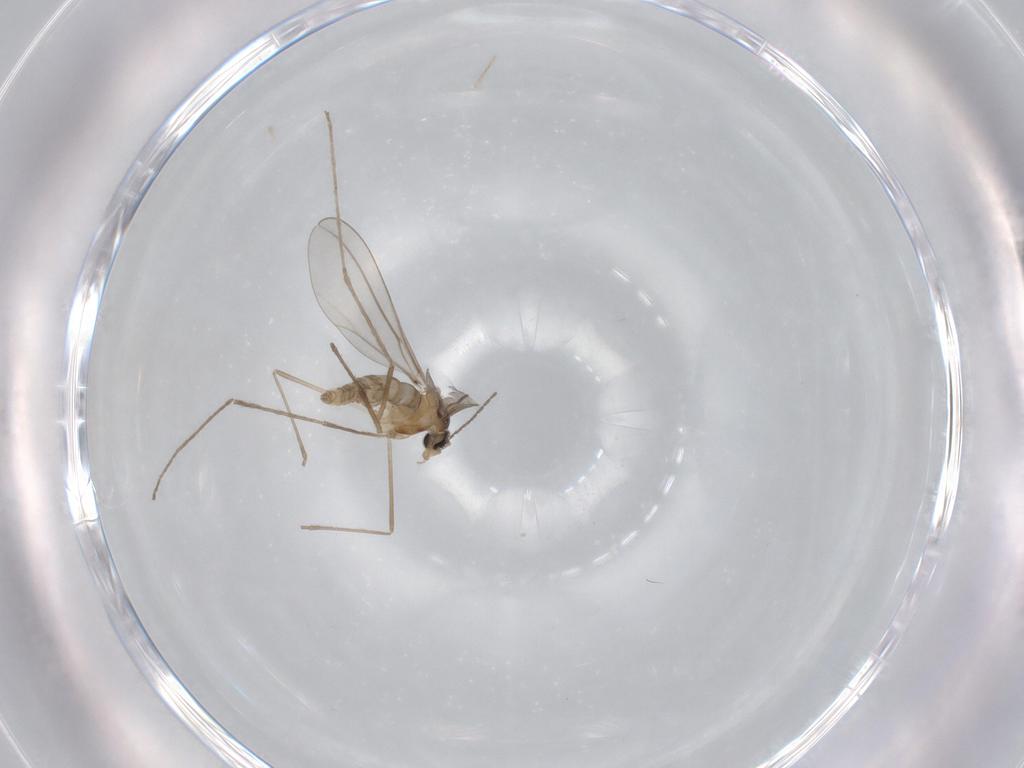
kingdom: Animalia
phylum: Arthropoda
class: Insecta
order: Diptera
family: Cecidomyiidae
